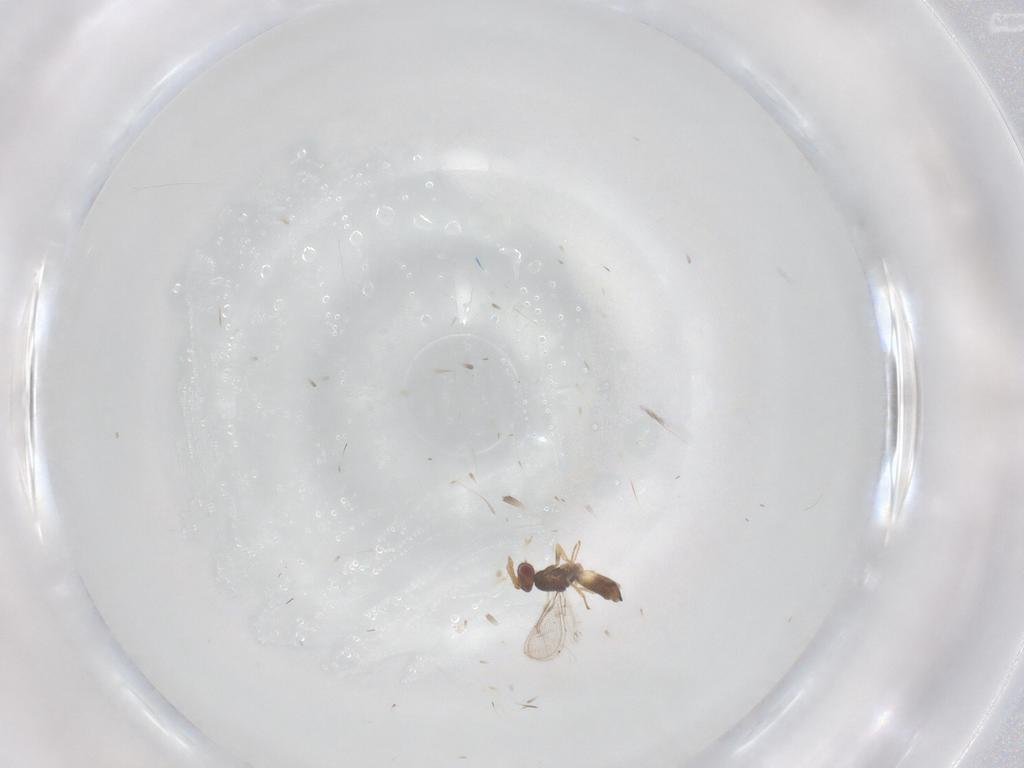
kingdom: Animalia
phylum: Arthropoda
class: Insecta
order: Hymenoptera
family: Eulophidae
